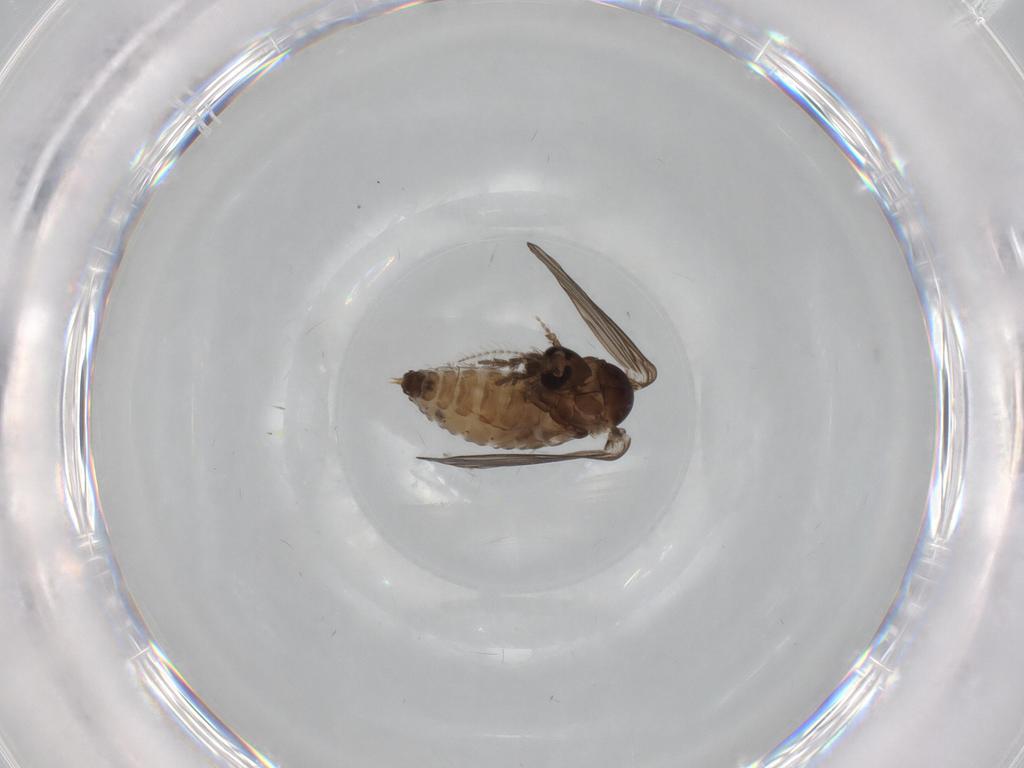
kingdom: Animalia
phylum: Arthropoda
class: Insecta
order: Diptera
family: Psychodidae
